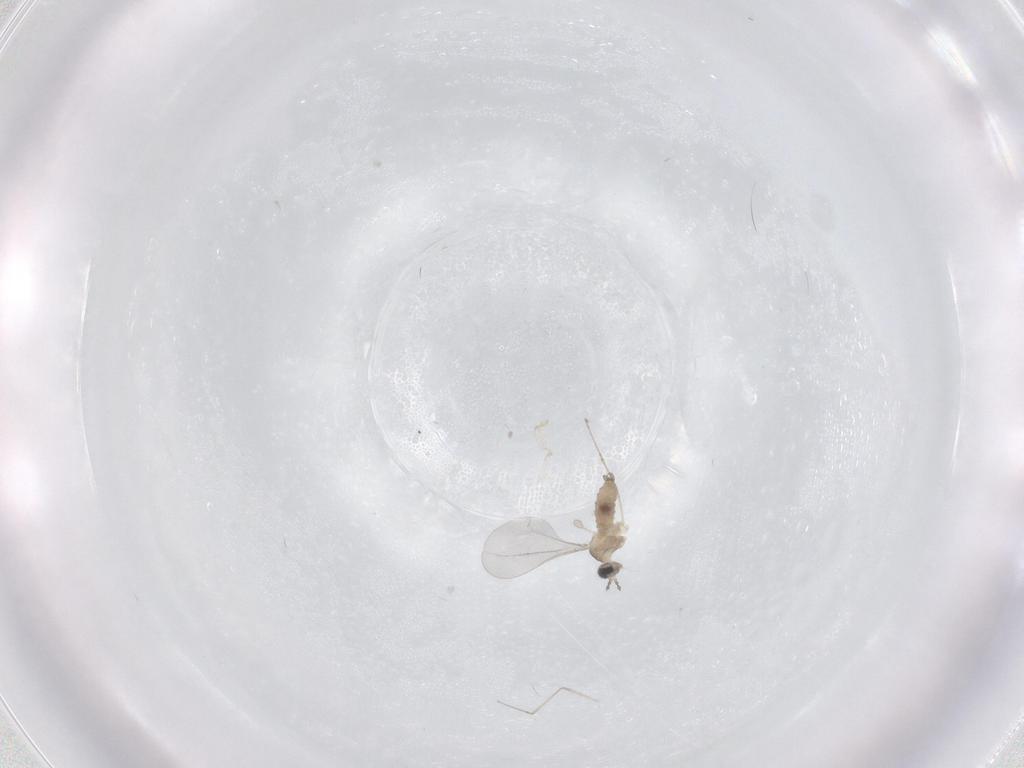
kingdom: Animalia
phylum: Arthropoda
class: Insecta
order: Diptera
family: Cecidomyiidae
